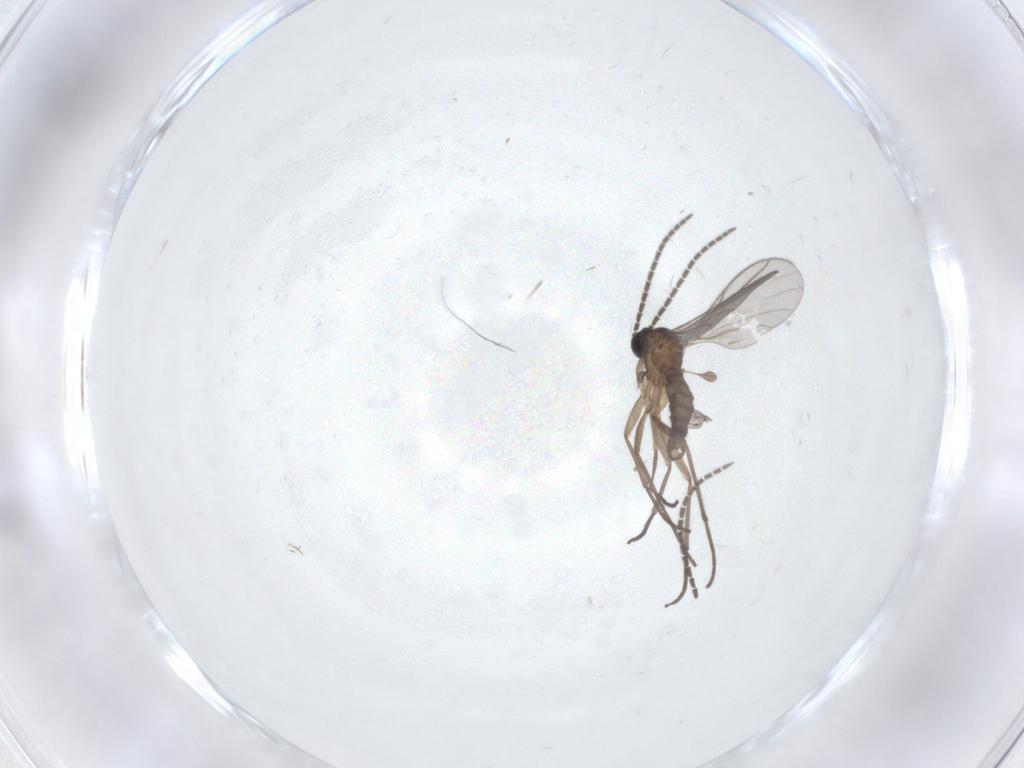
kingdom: Animalia
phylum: Arthropoda
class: Insecta
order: Diptera
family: Psychodidae
